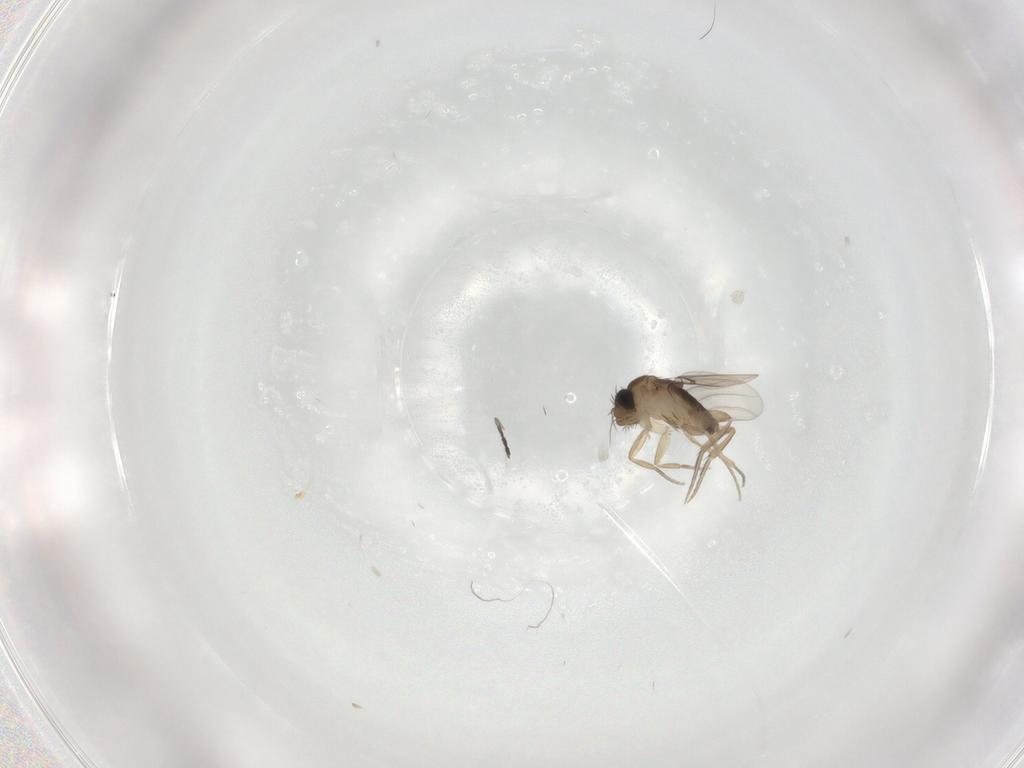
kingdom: Animalia
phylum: Arthropoda
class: Insecta
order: Diptera
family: Phoridae
